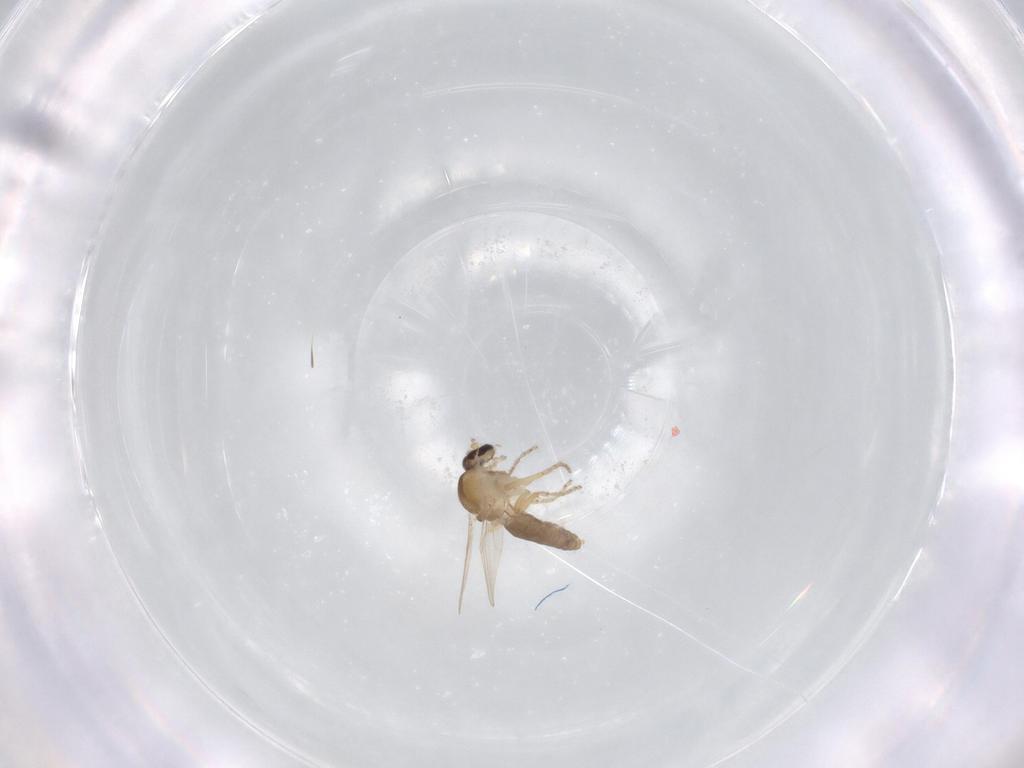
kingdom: Animalia
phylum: Arthropoda
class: Insecta
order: Diptera
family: Ceratopogonidae
